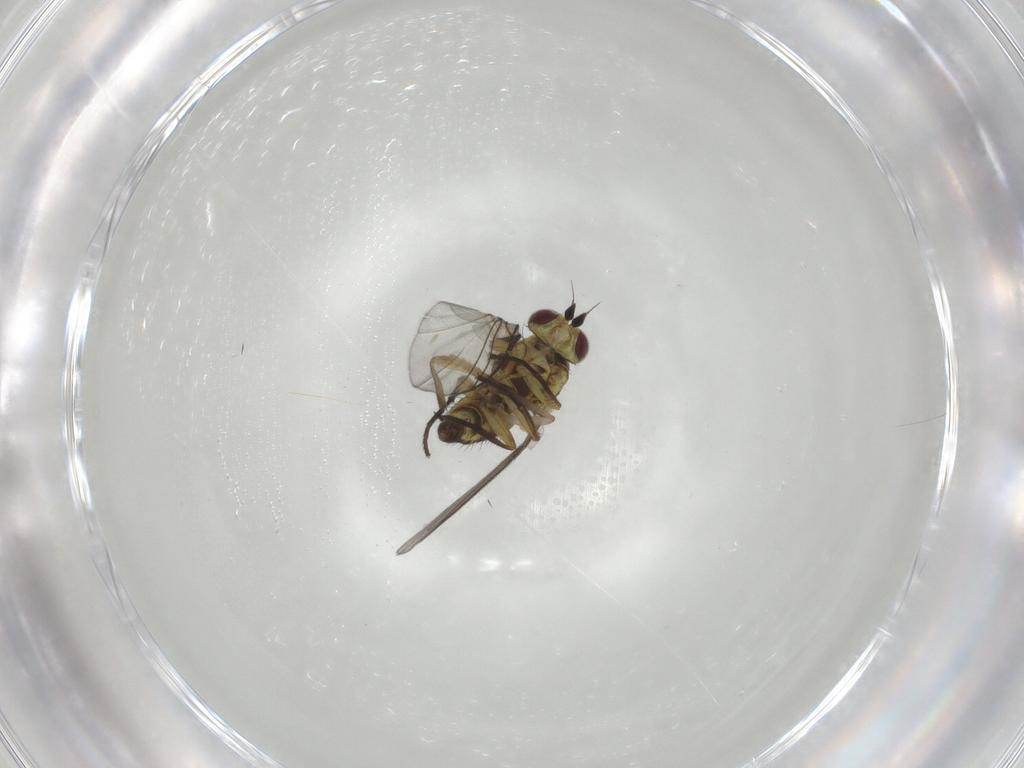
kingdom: Animalia
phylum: Arthropoda
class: Insecta
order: Diptera
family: Agromyzidae
